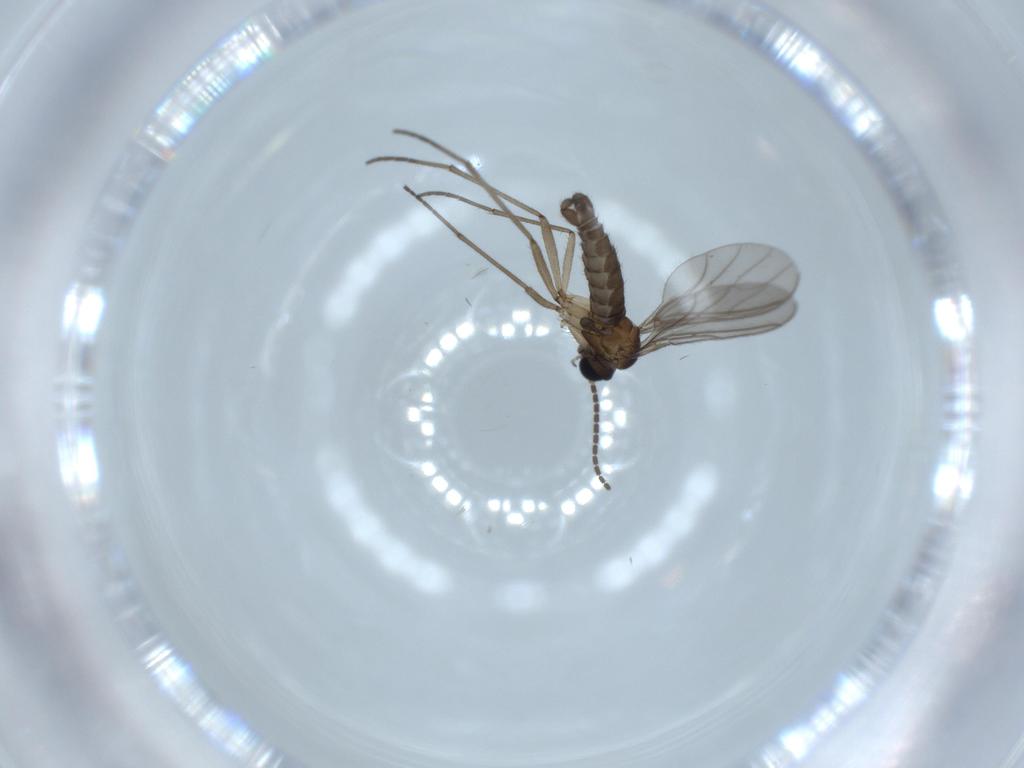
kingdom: Animalia
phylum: Arthropoda
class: Insecta
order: Diptera
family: Sciaridae
